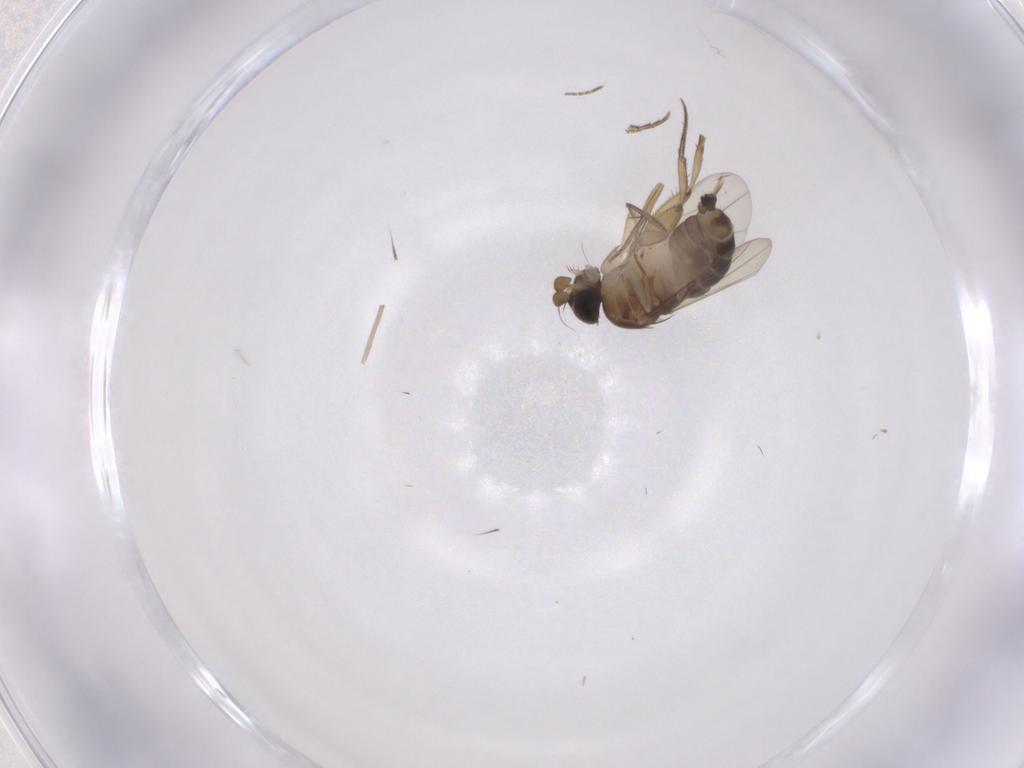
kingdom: Animalia
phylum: Arthropoda
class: Insecta
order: Diptera
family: Phoridae
